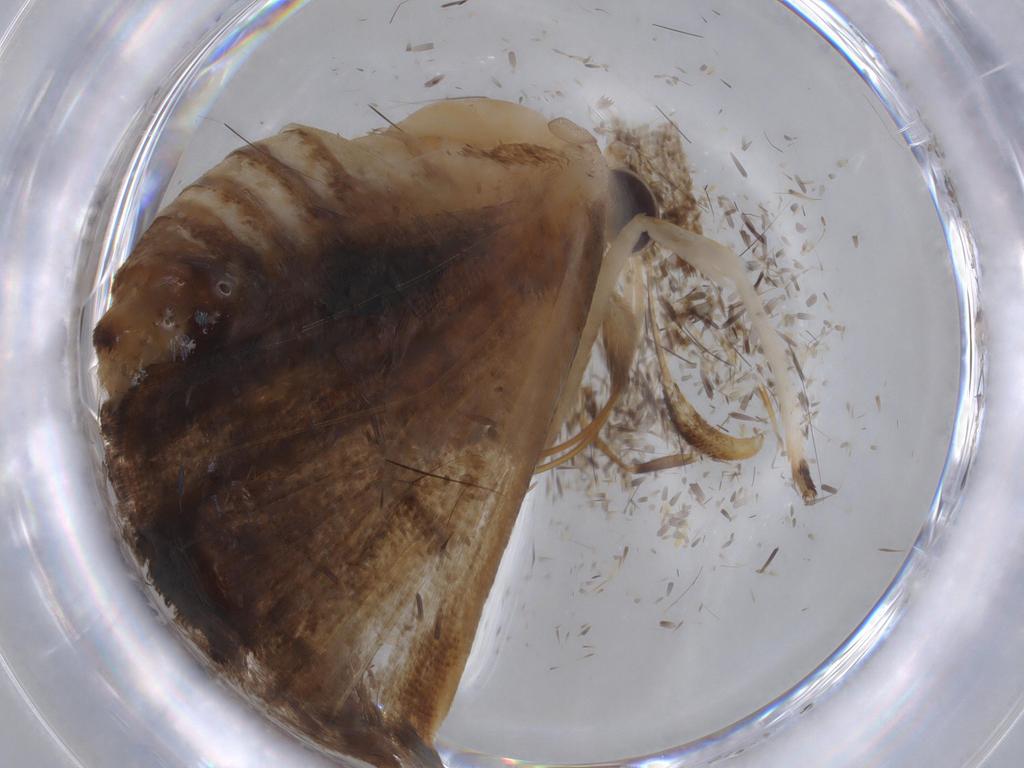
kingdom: Animalia
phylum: Arthropoda
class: Insecta
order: Lepidoptera
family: Crambidae
